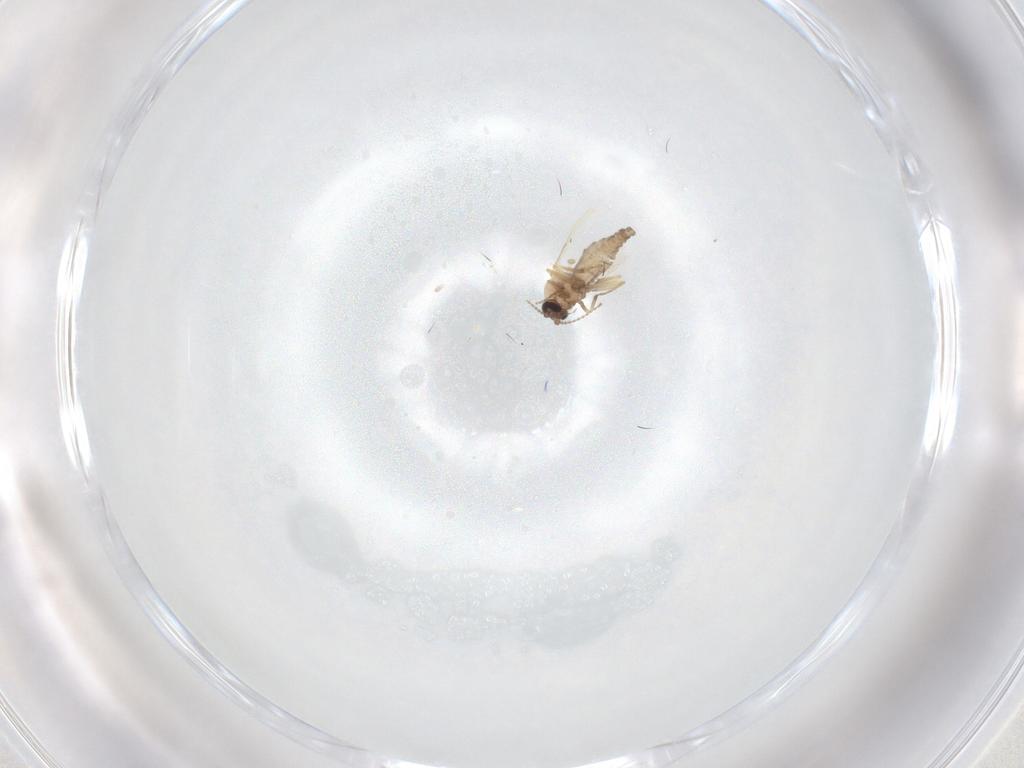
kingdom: Animalia
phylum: Arthropoda
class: Insecta
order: Diptera
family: Ceratopogonidae
